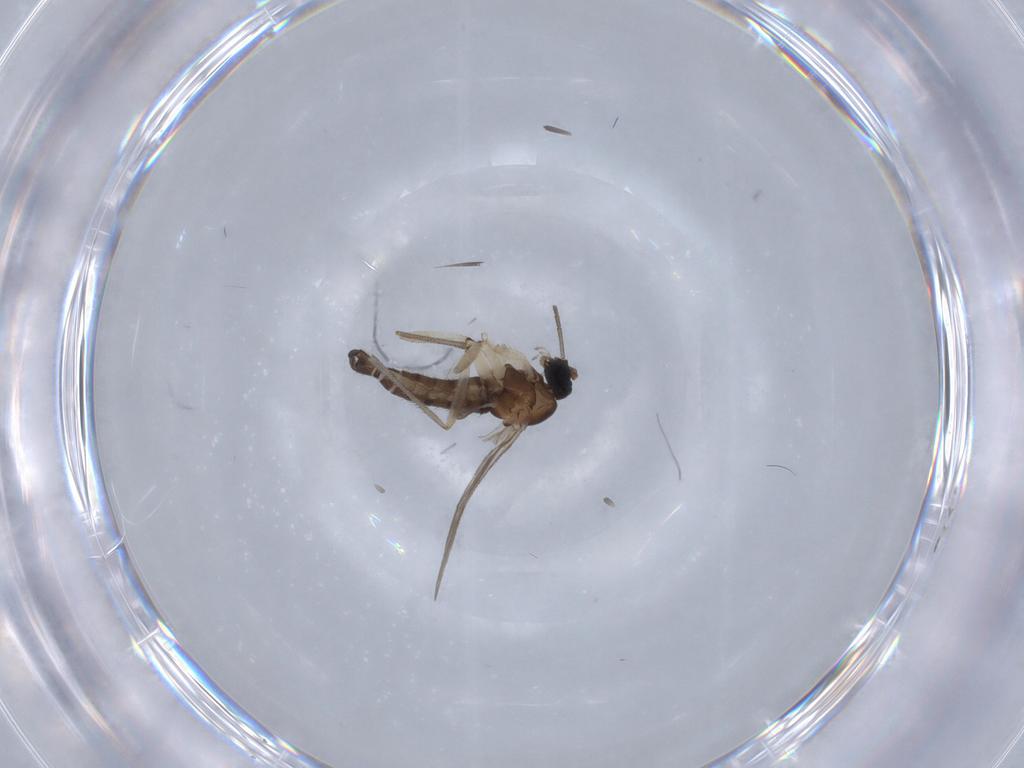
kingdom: Animalia
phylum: Arthropoda
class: Insecta
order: Diptera
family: Sciaridae
